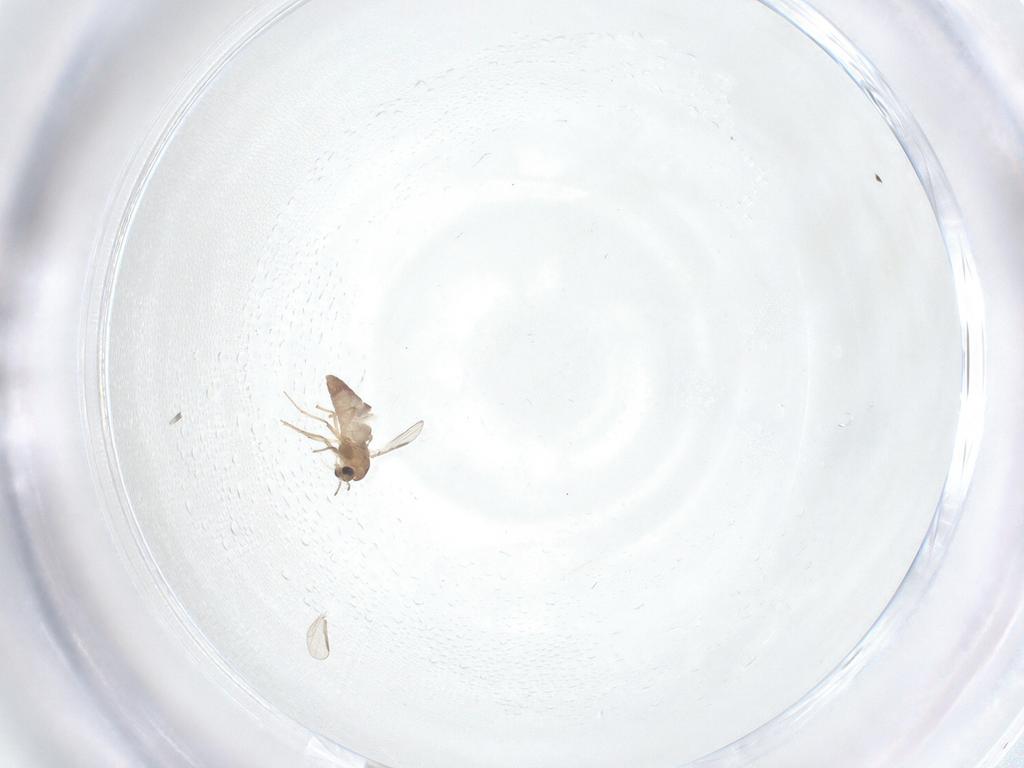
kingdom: Animalia
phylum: Arthropoda
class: Insecta
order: Diptera
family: Chironomidae
